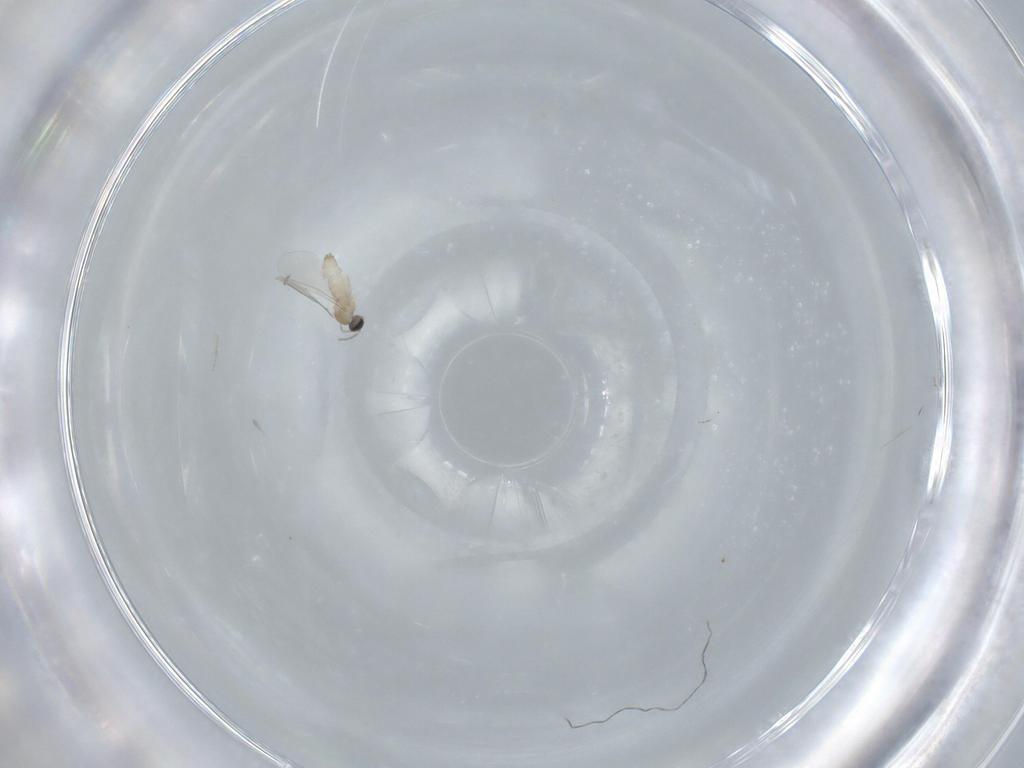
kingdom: Animalia
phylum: Arthropoda
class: Insecta
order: Diptera
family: Cecidomyiidae
